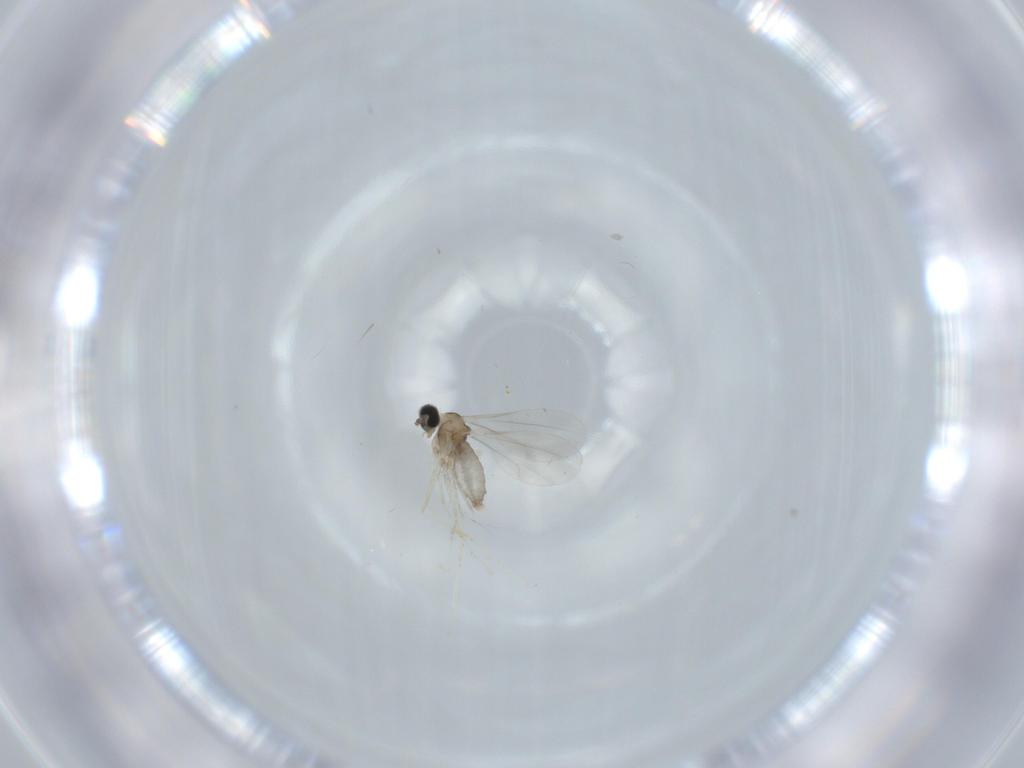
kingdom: Animalia
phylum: Arthropoda
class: Insecta
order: Diptera
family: Cecidomyiidae
